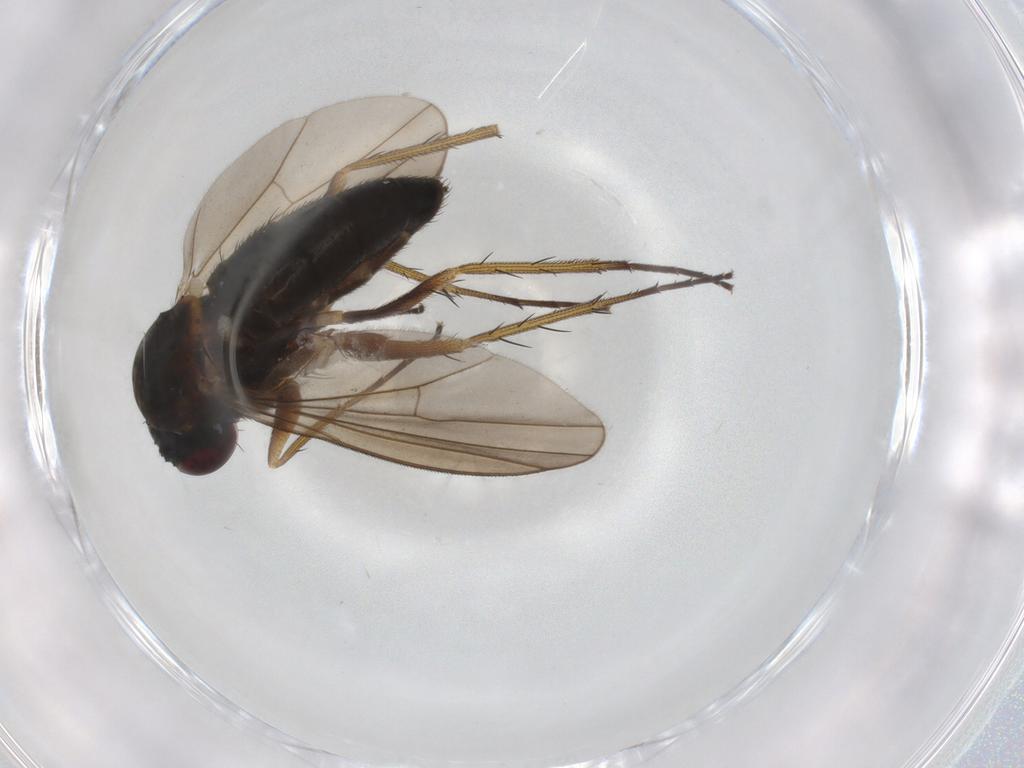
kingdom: Animalia
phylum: Arthropoda
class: Insecta
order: Diptera
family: Dolichopodidae
